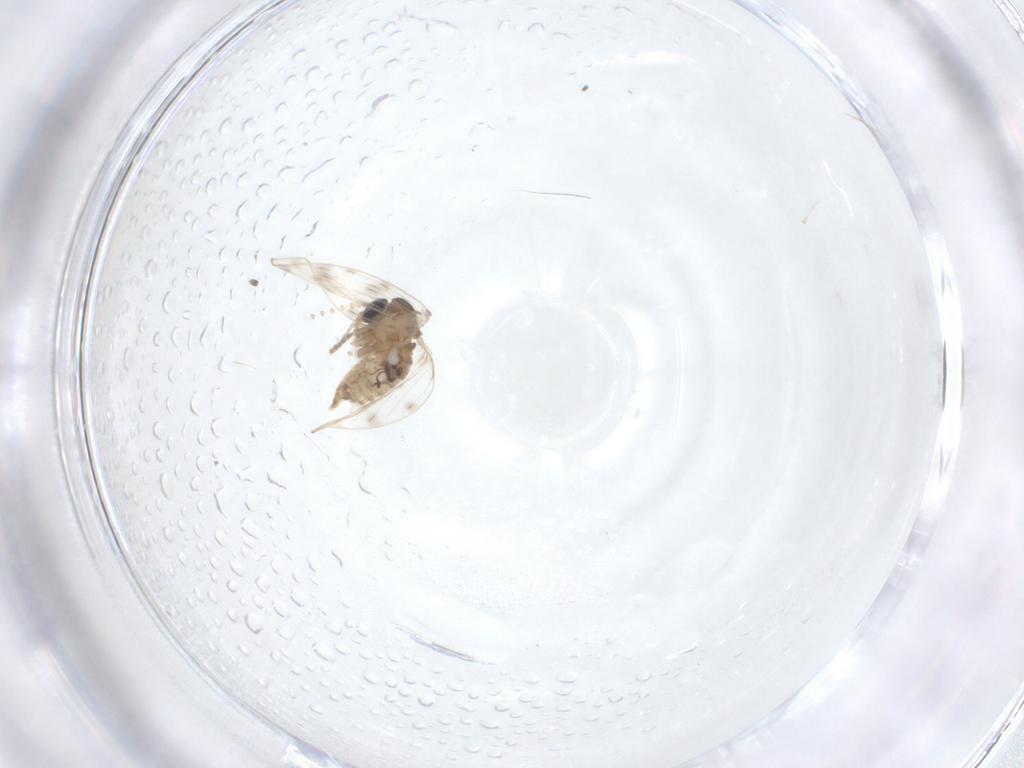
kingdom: Animalia
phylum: Arthropoda
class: Insecta
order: Diptera
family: Psychodidae
